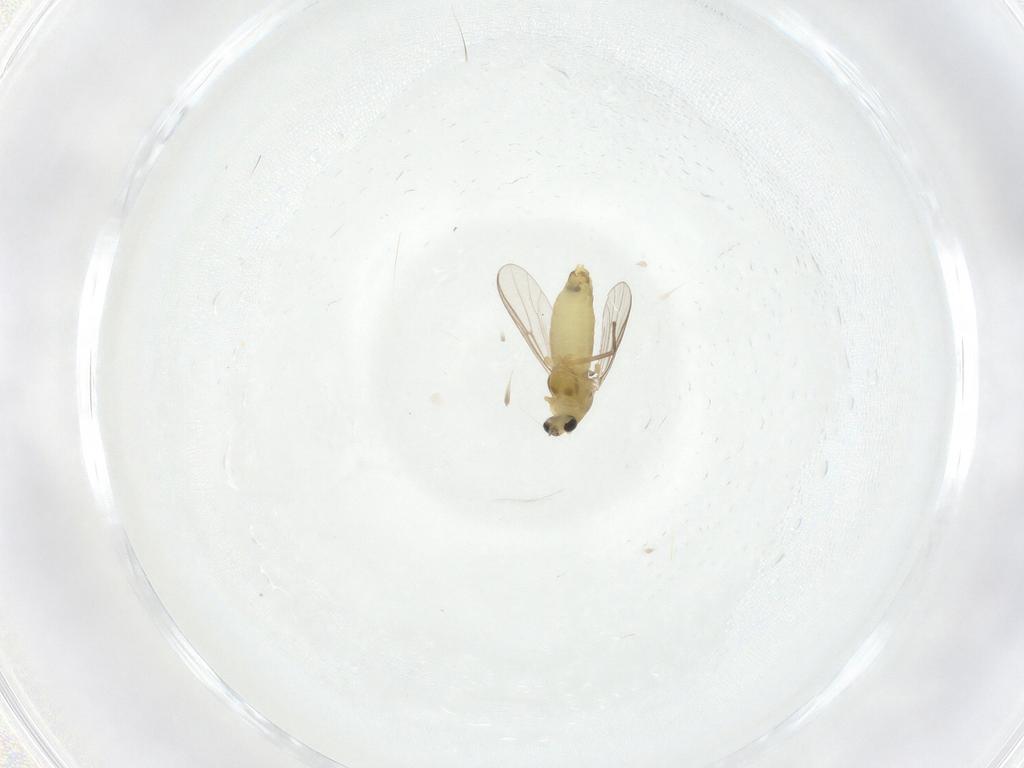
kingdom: Animalia
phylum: Arthropoda
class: Insecta
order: Diptera
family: Chironomidae
